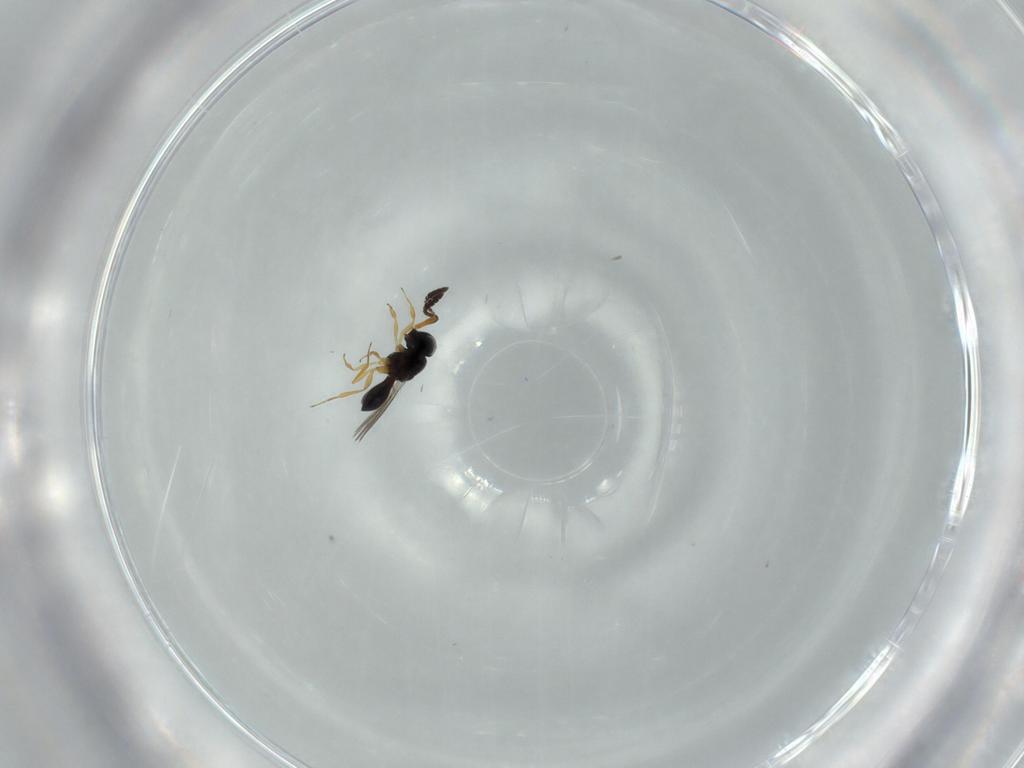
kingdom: Animalia
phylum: Arthropoda
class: Insecta
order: Hymenoptera
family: Scelionidae
